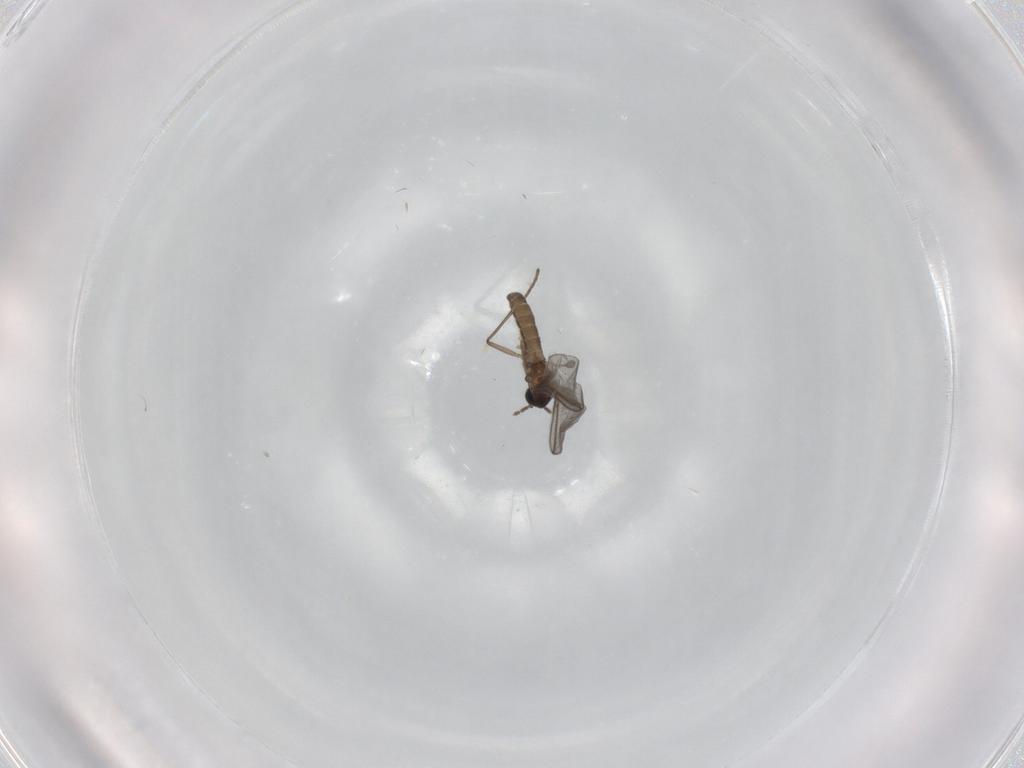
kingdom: Animalia
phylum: Arthropoda
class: Insecta
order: Diptera
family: Sciaridae
